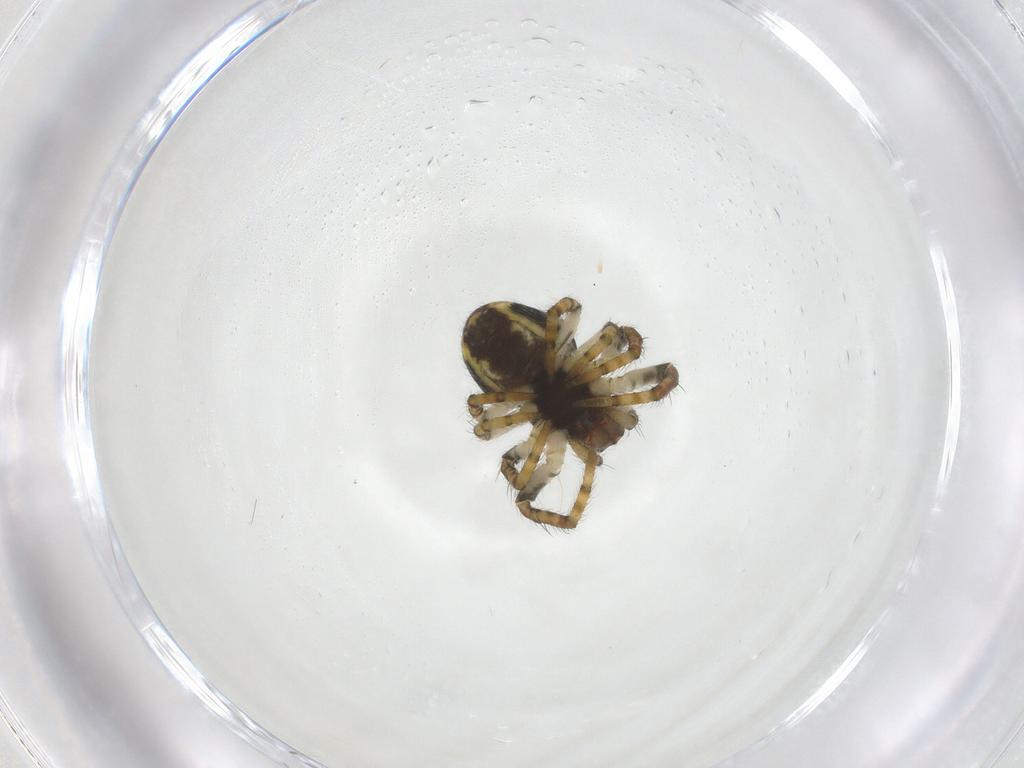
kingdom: Animalia
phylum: Arthropoda
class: Arachnida
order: Araneae
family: Araneidae
